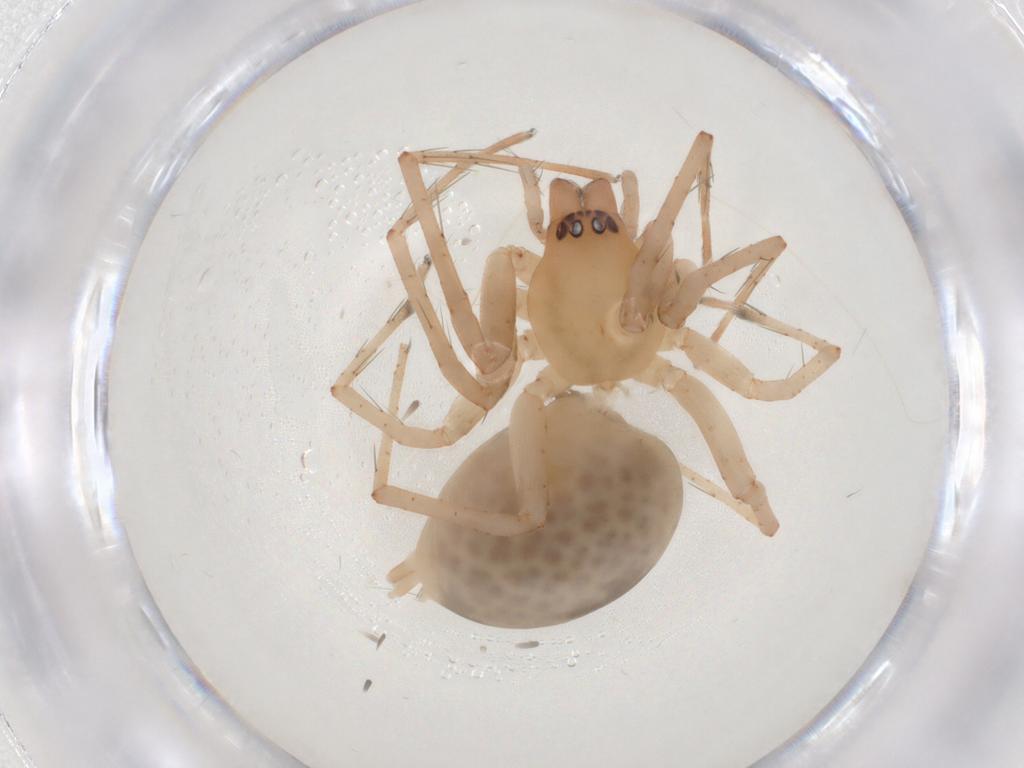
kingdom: Animalia
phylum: Arthropoda
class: Arachnida
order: Araneae
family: Anyphaenidae
